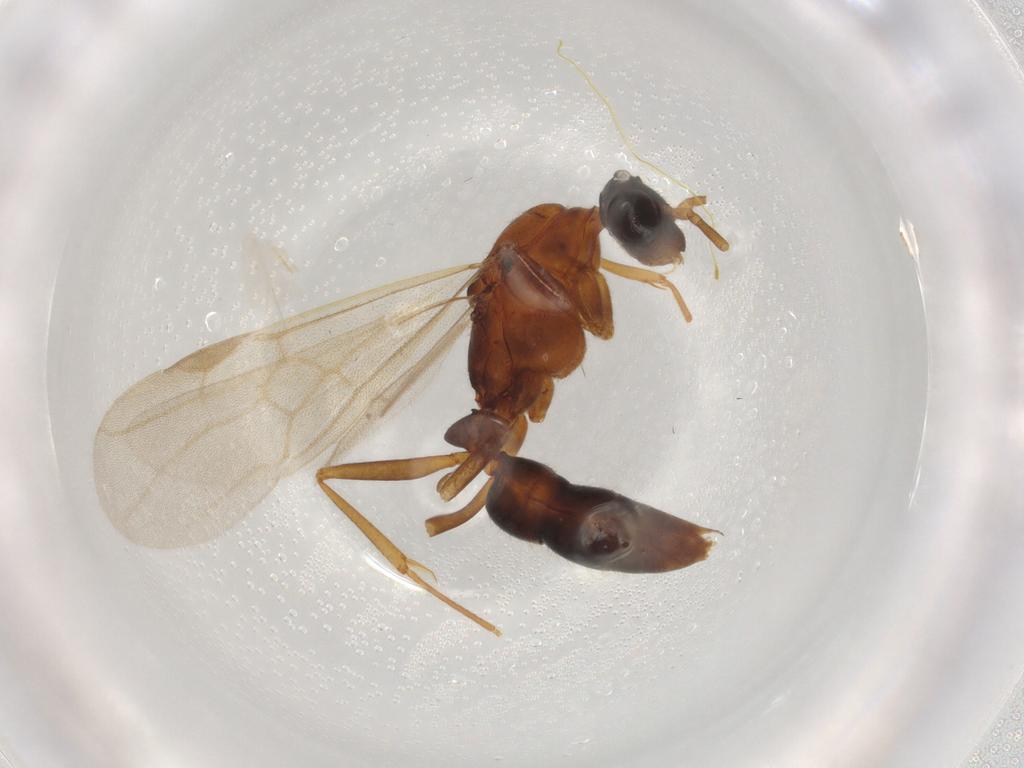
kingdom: Animalia
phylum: Arthropoda
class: Insecta
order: Hymenoptera
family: Formicidae
